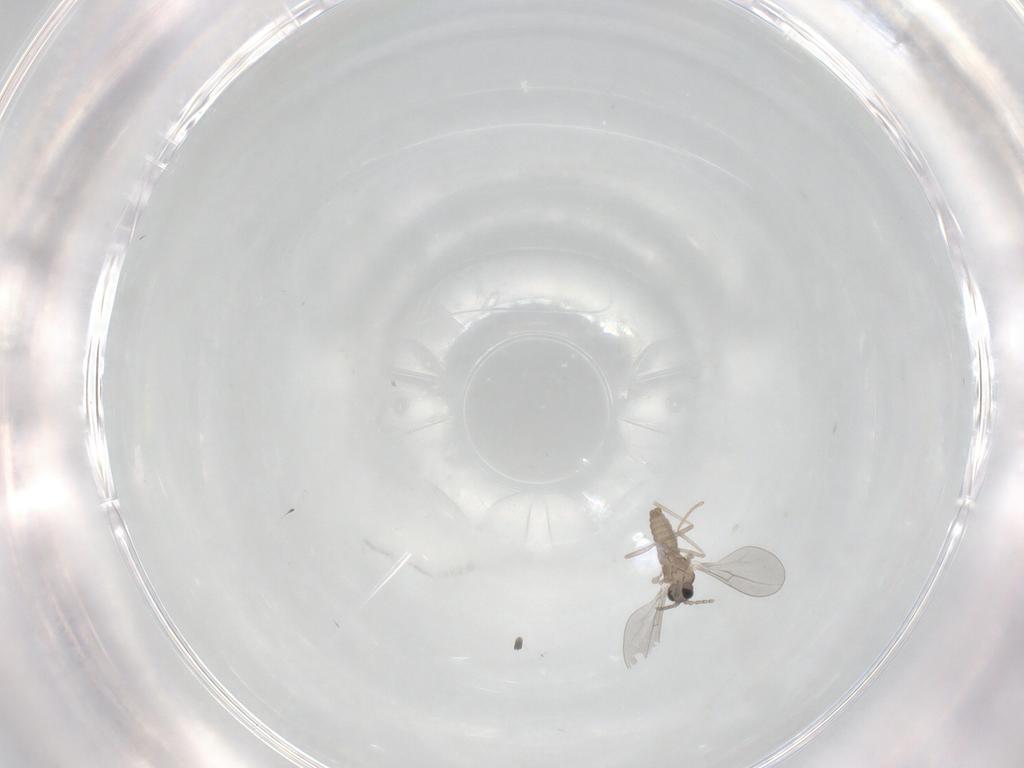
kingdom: Animalia
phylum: Arthropoda
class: Insecta
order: Diptera
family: Cecidomyiidae
